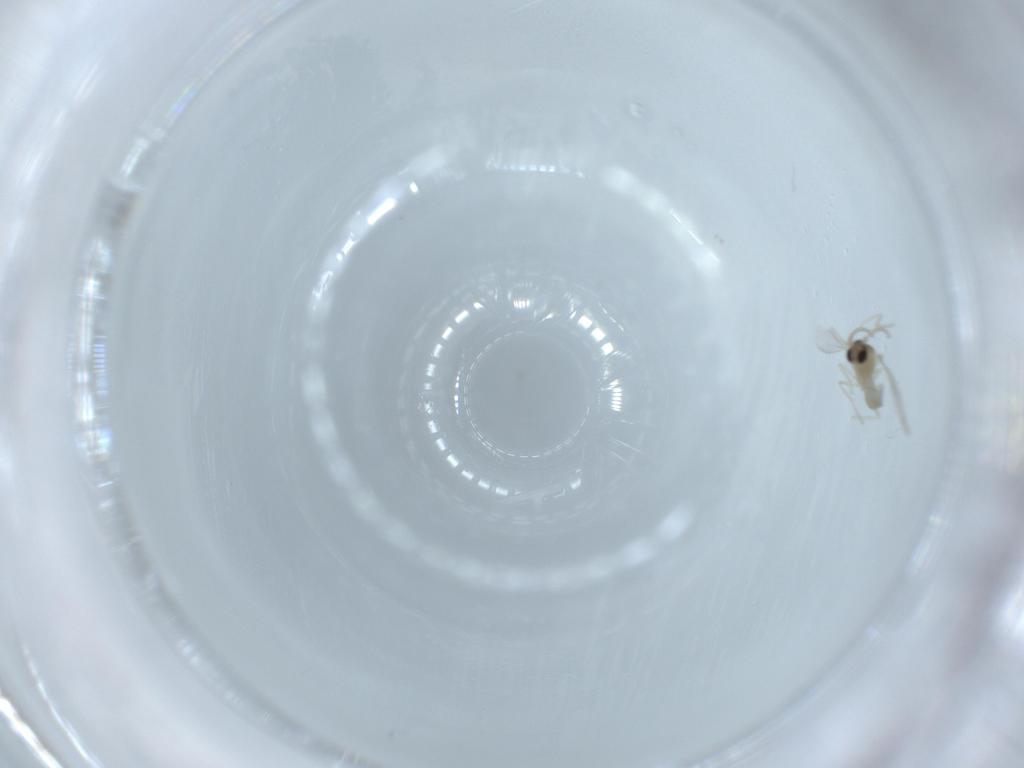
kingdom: Animalia
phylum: Arthropoda
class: Insecta
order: Diptera
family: Cecidomyiidae
